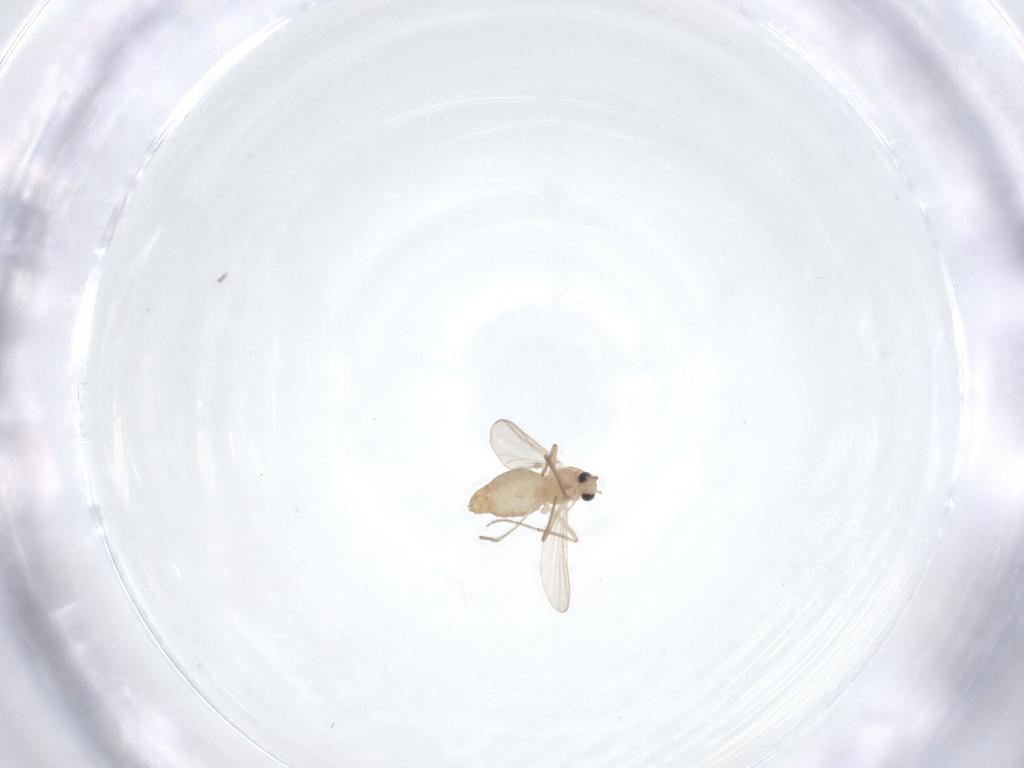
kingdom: Animalia
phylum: Arthropoda
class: Insecta
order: Diptera
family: Chironomidae
